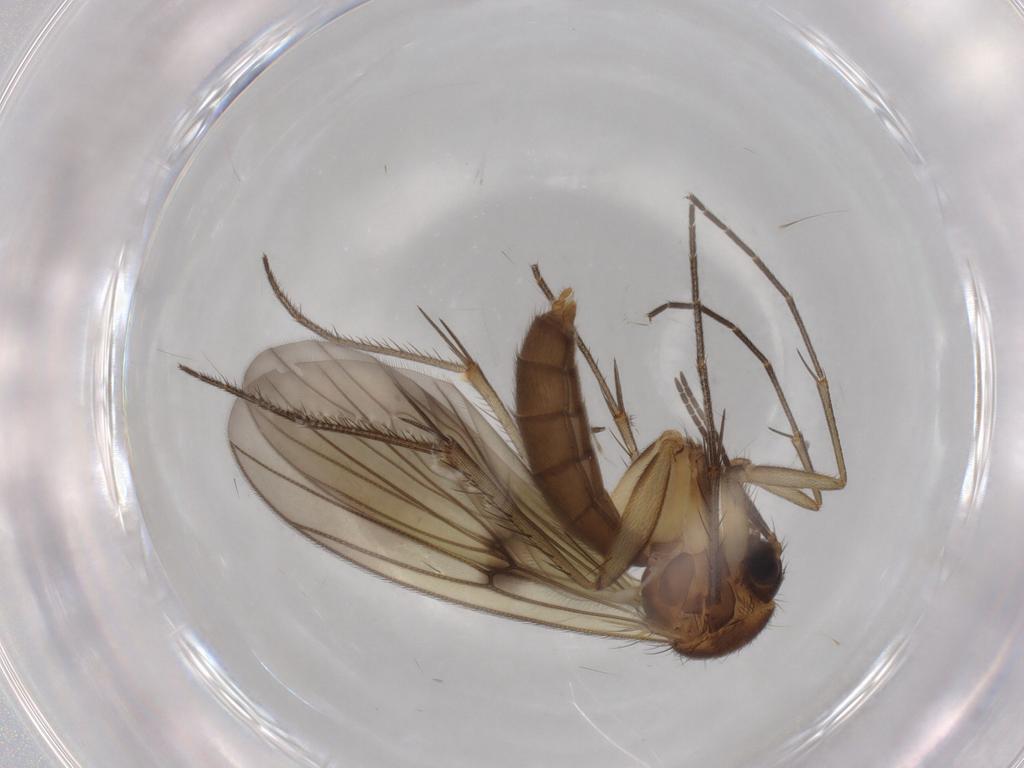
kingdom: Animalia
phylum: Arthropoda
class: Insecta
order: Diptera
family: Mycetophilidae
